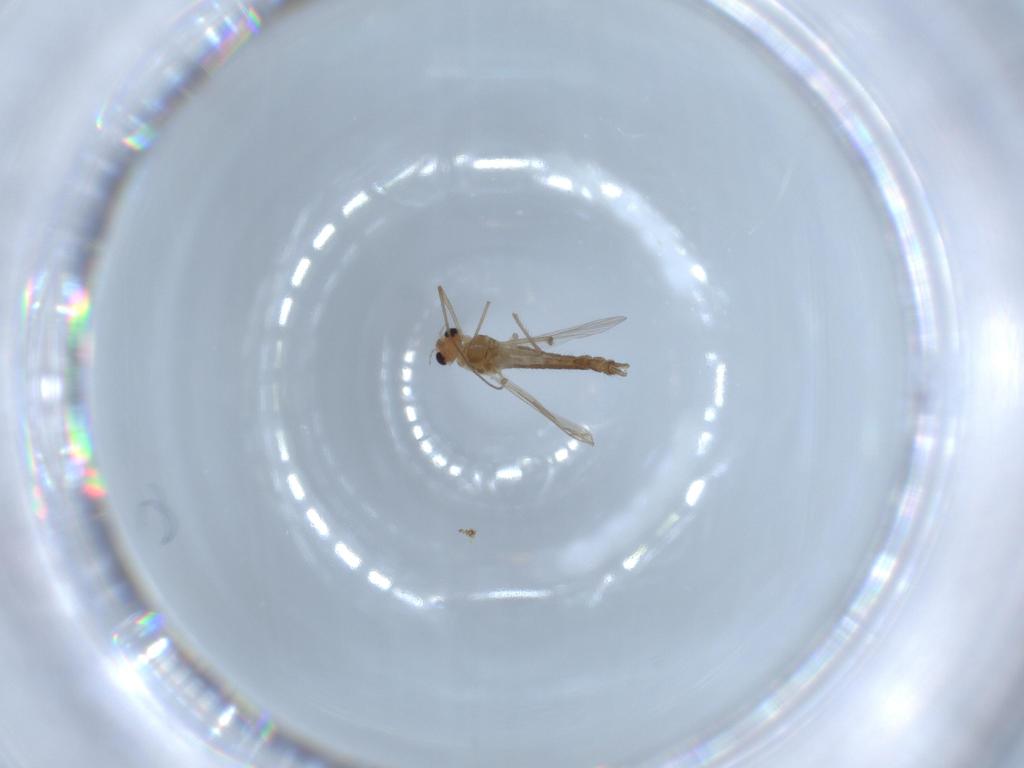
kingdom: Animalia
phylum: Arthropoda
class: Insecta
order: Diptera
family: Chironomidae
